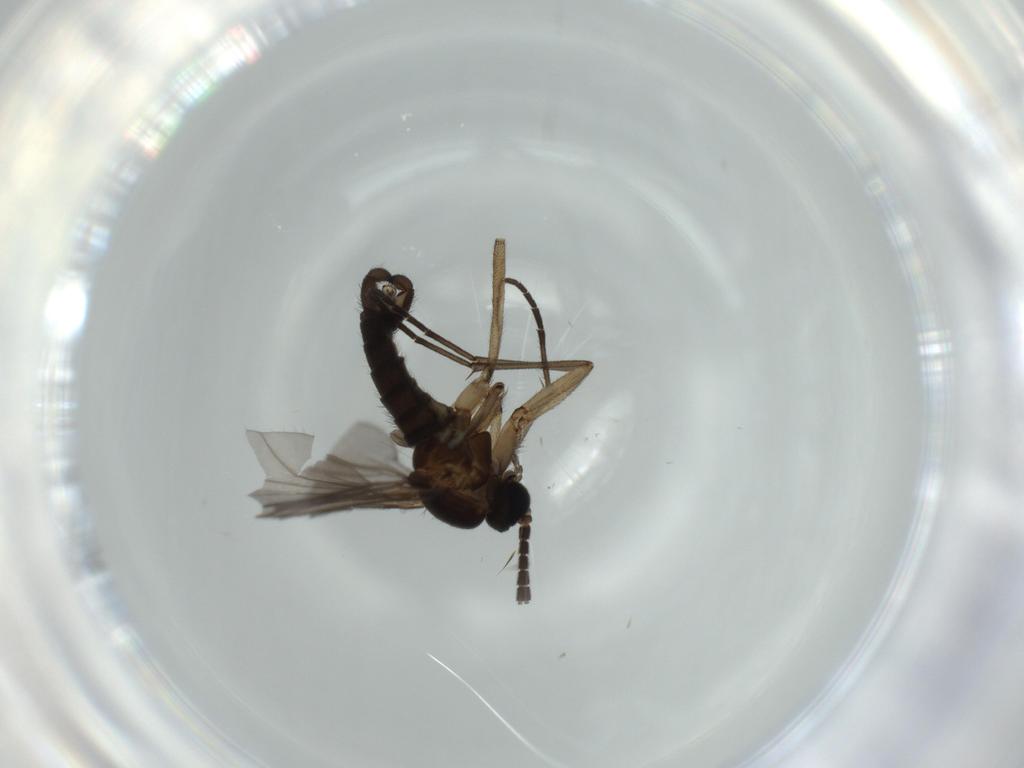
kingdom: Animalia
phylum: Arthropoda
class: Insecta
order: Diptera
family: Sciaridae
